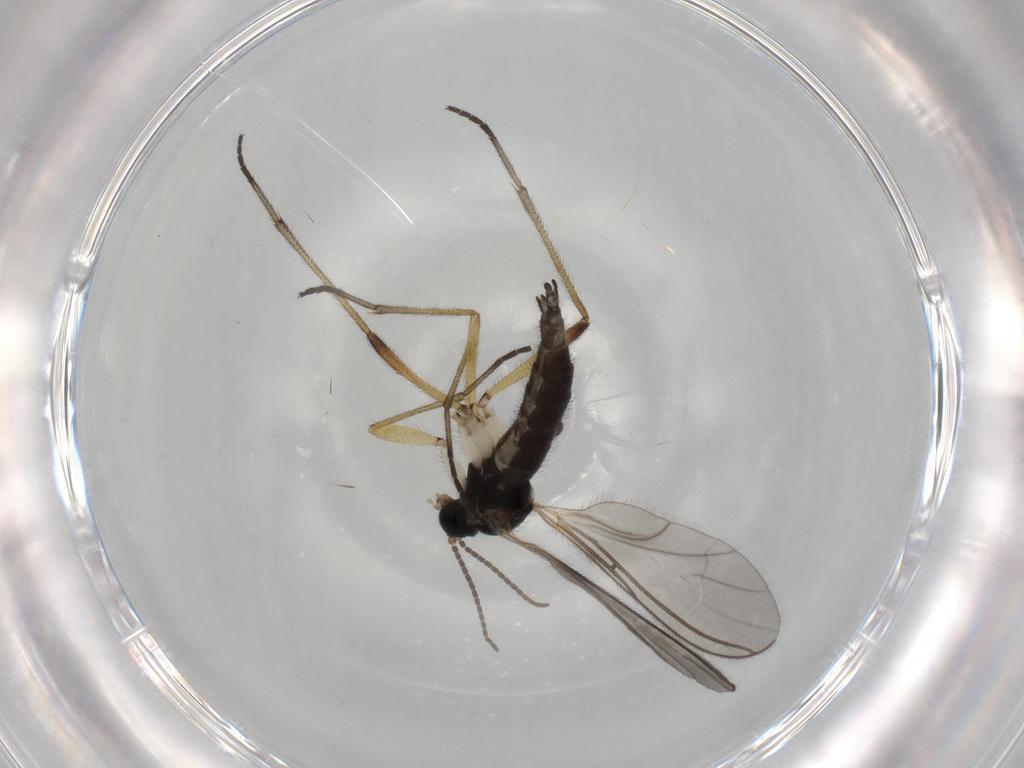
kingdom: Animalia
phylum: Arthropoda
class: Insecta
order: Diptera
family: Sciaridae
